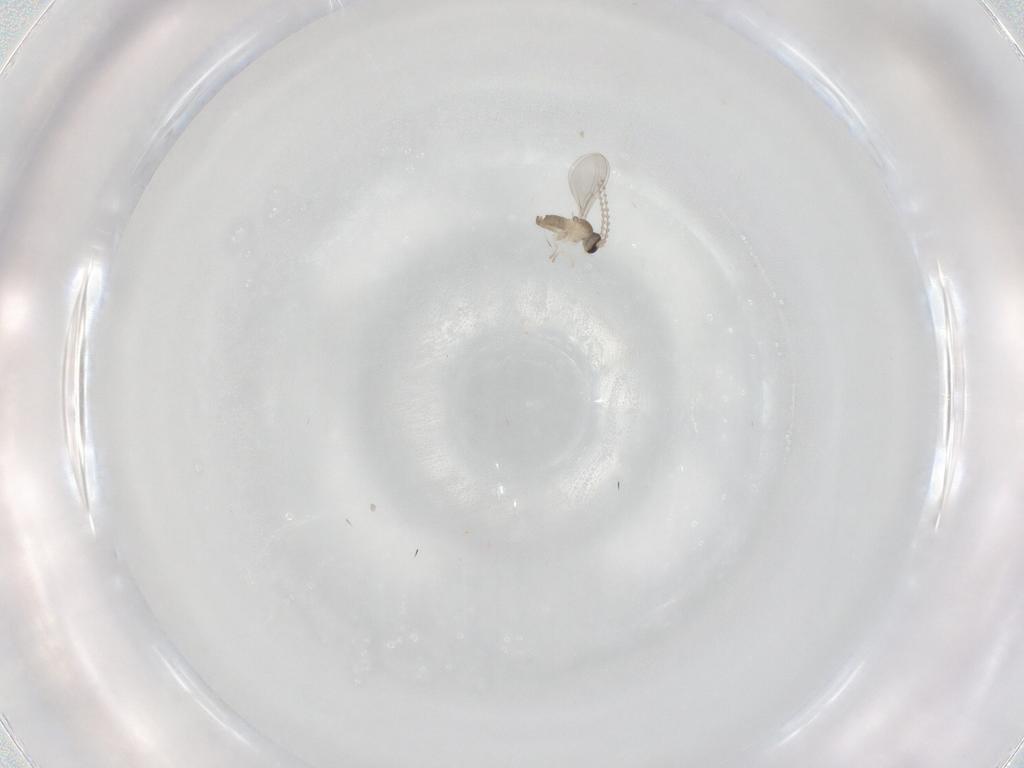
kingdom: Animalia
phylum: Arthropoda
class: Insecta
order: Diptera
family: Cecidomyiidae
